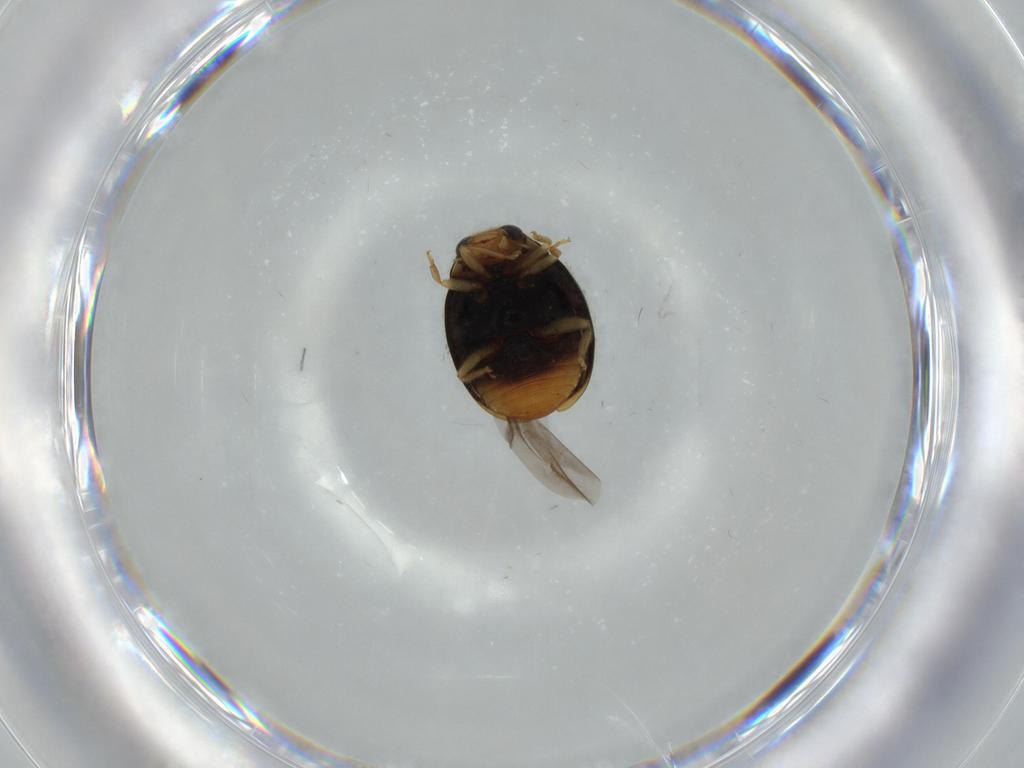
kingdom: Animalia
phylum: Arthropoda
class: Insecta
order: Coleoptera
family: Cantharidae
